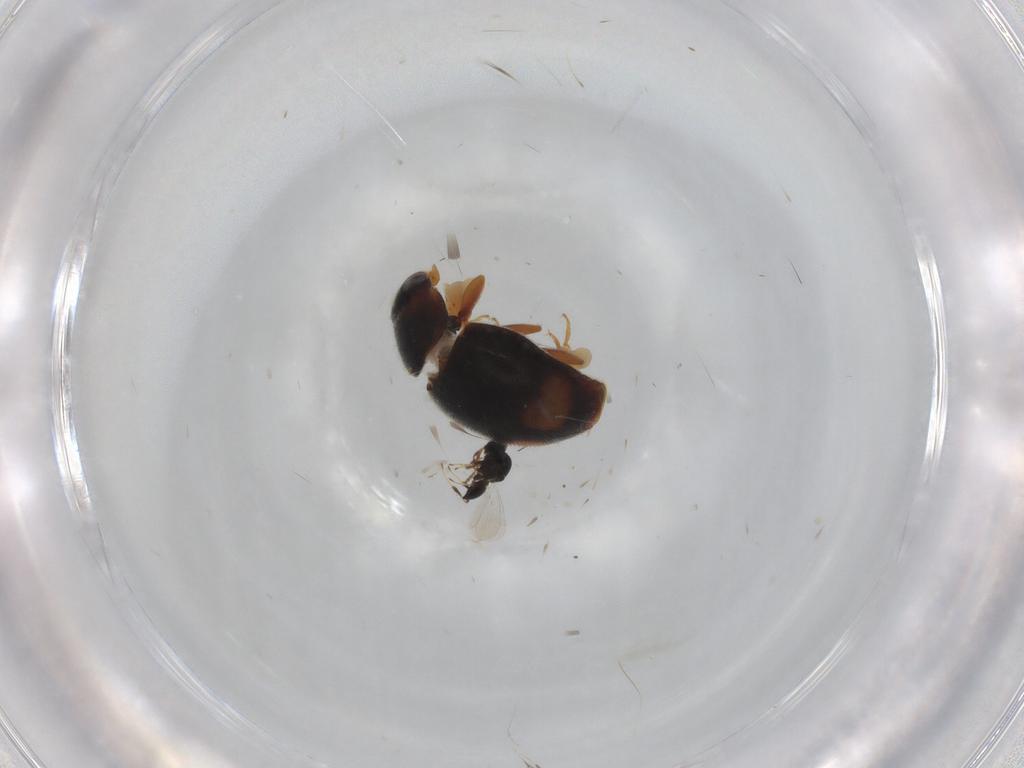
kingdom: Animalia
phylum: Arthropoda
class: Insecta
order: Coleoptera
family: Coccinellidae
